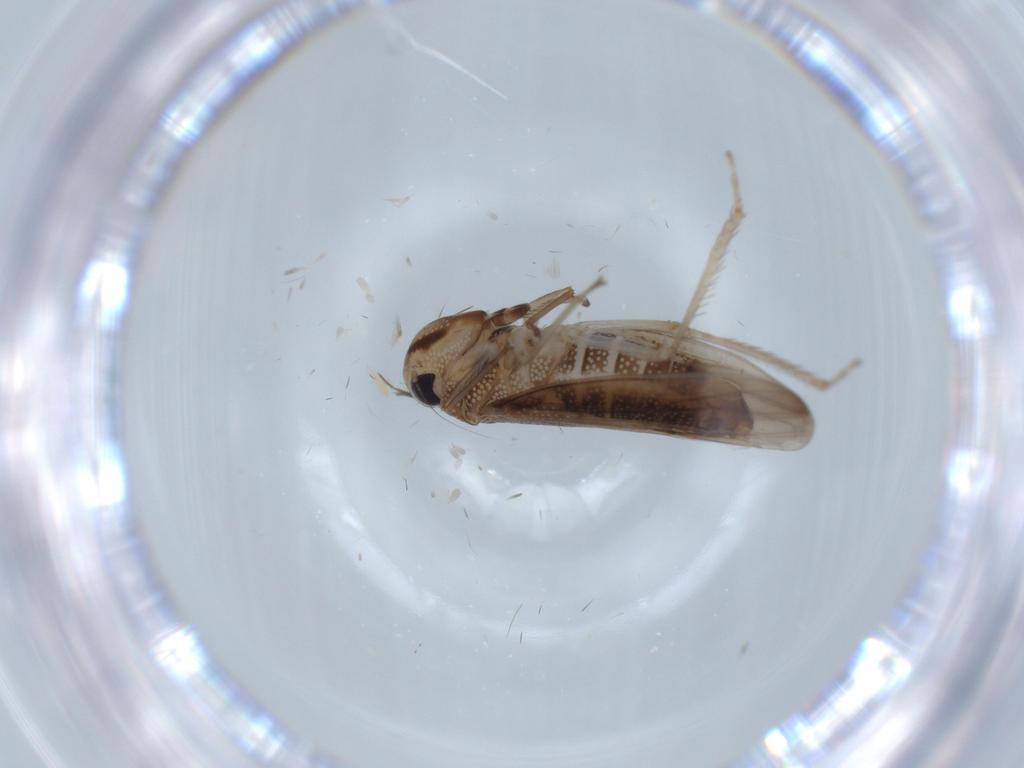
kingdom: Animalia
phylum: Arthropoda
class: Insecta
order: Hemiptera
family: Cicadellidae
